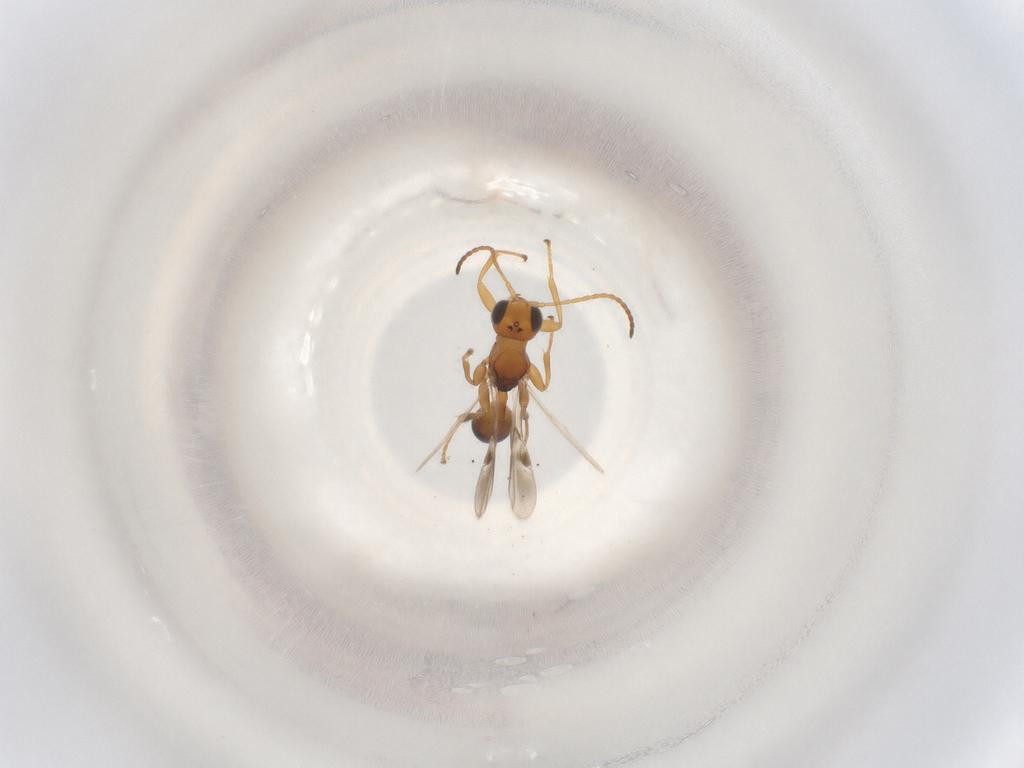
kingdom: Animalia
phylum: Arthropoda
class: Insecta
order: Hymenoptera
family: Braconidae
